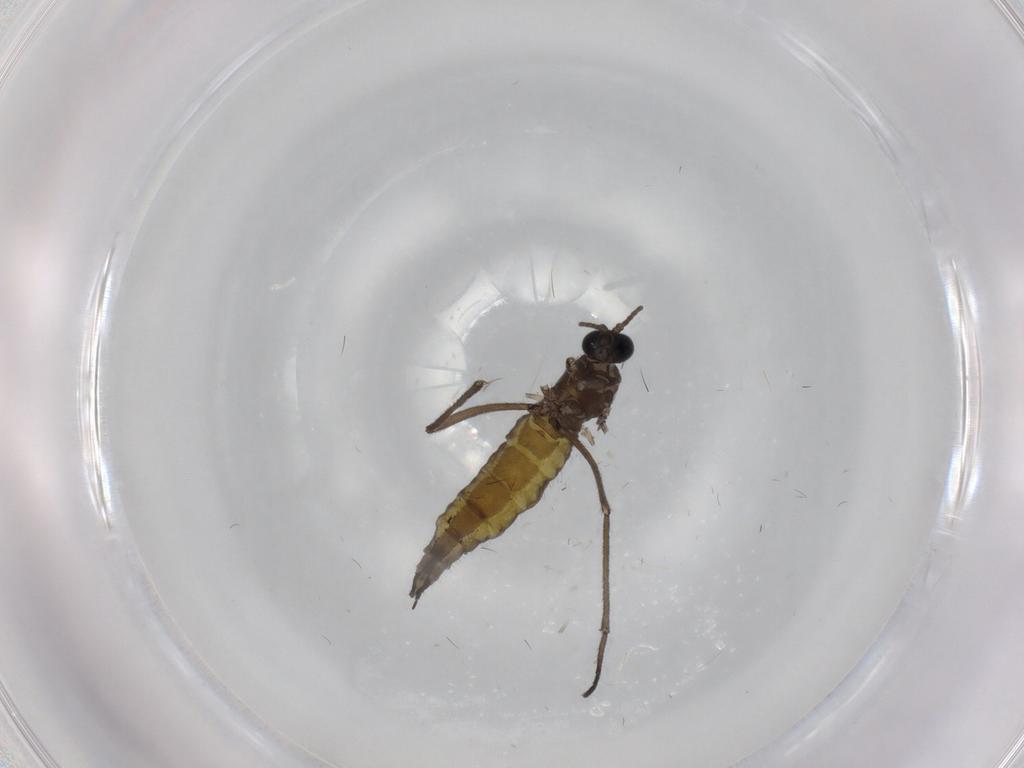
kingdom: Animalia
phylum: Arthropoda
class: Insecta
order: Diptera
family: Sciaridae
